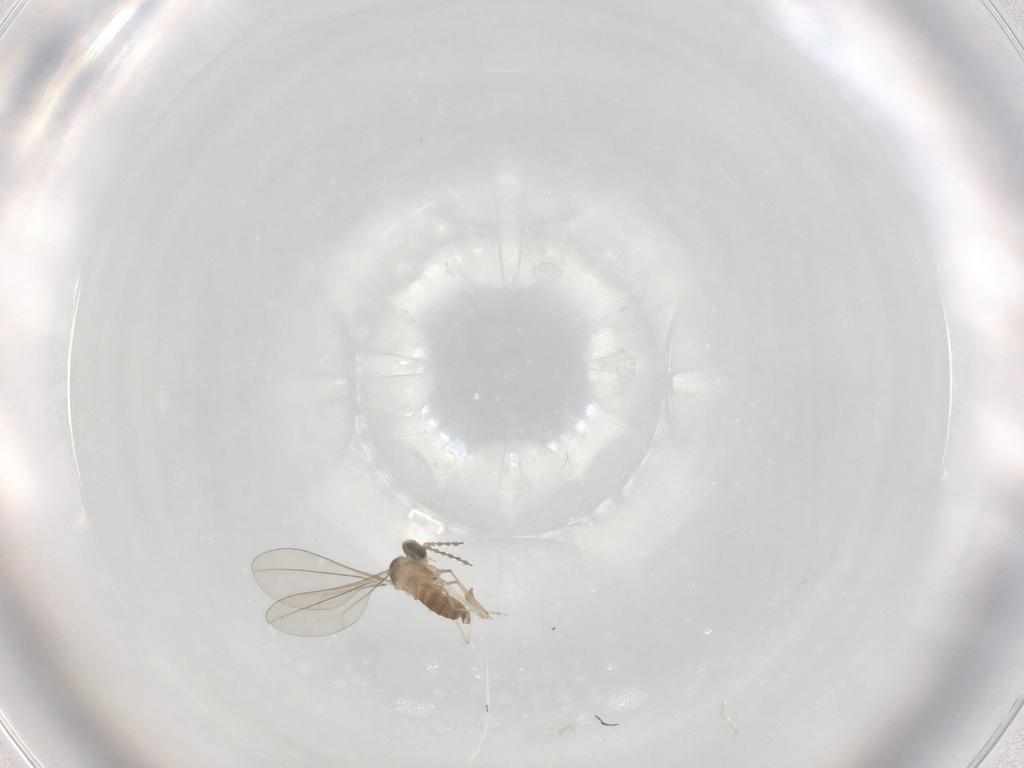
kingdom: Animalia
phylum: Arthropoda
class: Insecta
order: Diptera
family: Cecidomyiidae
